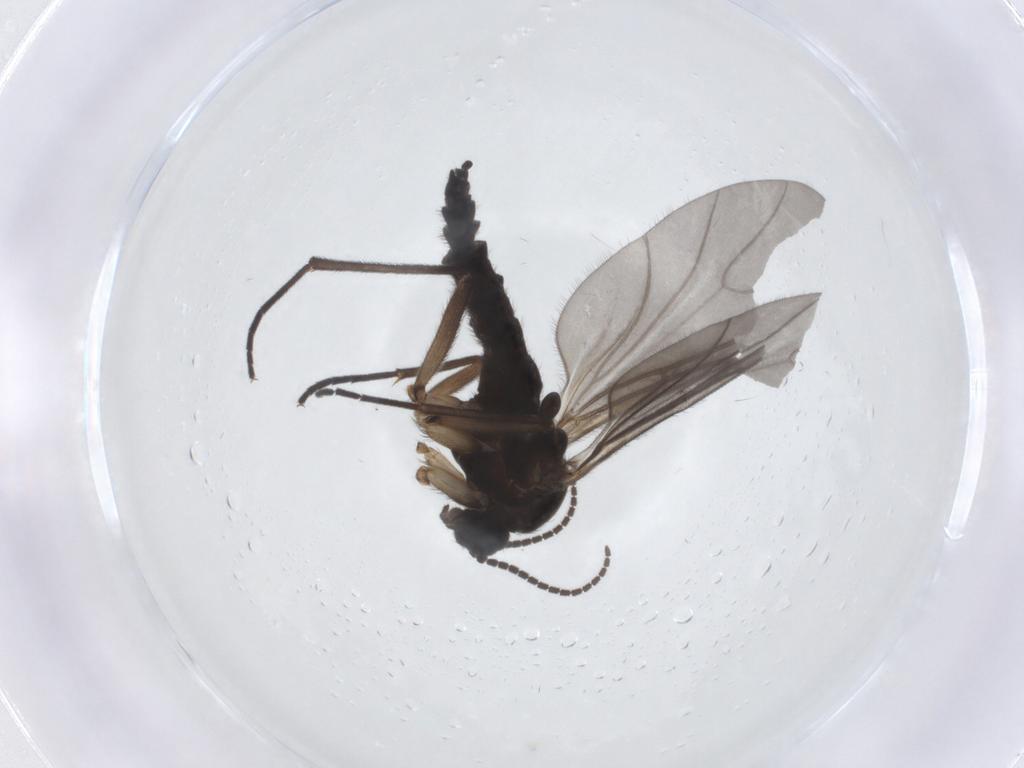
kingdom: Animalia
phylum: Arthropoda
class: Insecta
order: Diptera
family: Sciaridae
